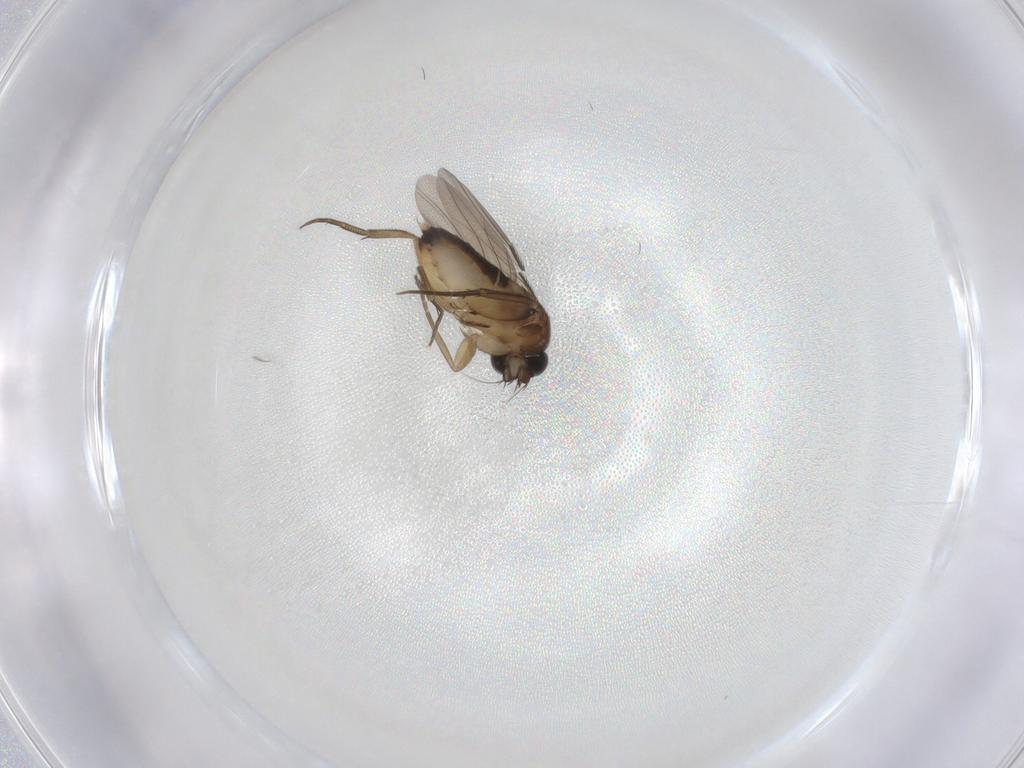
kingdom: Animalia
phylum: Arthropoda
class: Insecta
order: Diptera
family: Phoridae
